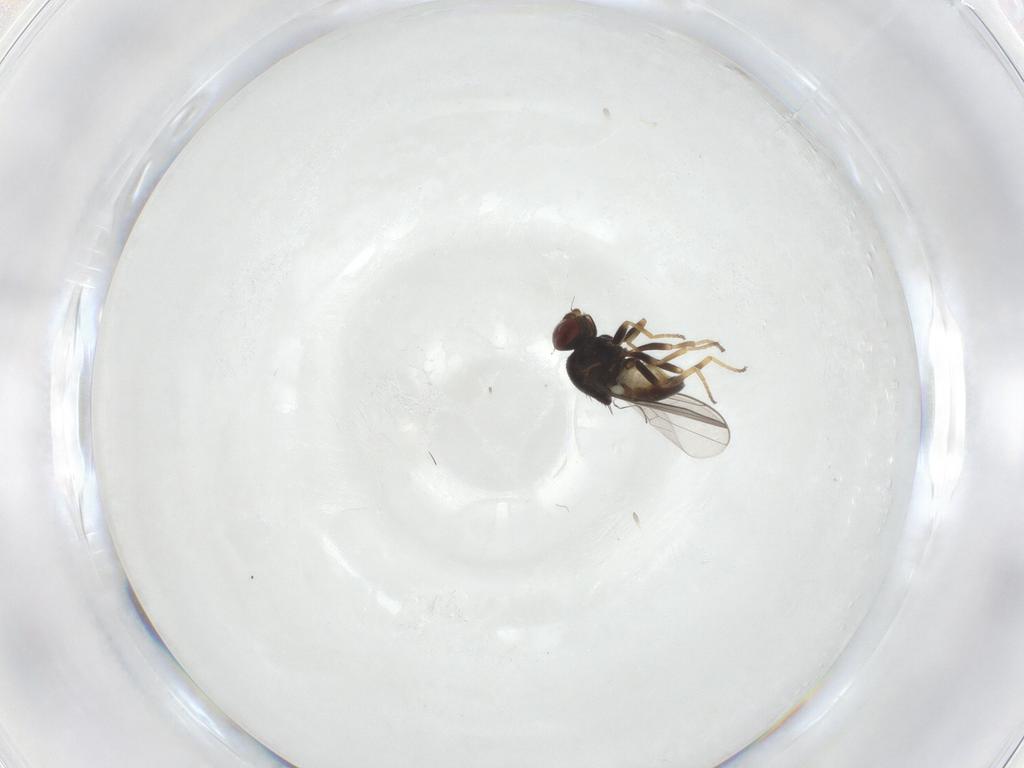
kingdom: Animalia
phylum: Arthropoda
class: Insecta
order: Diptera
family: Chloropidae
